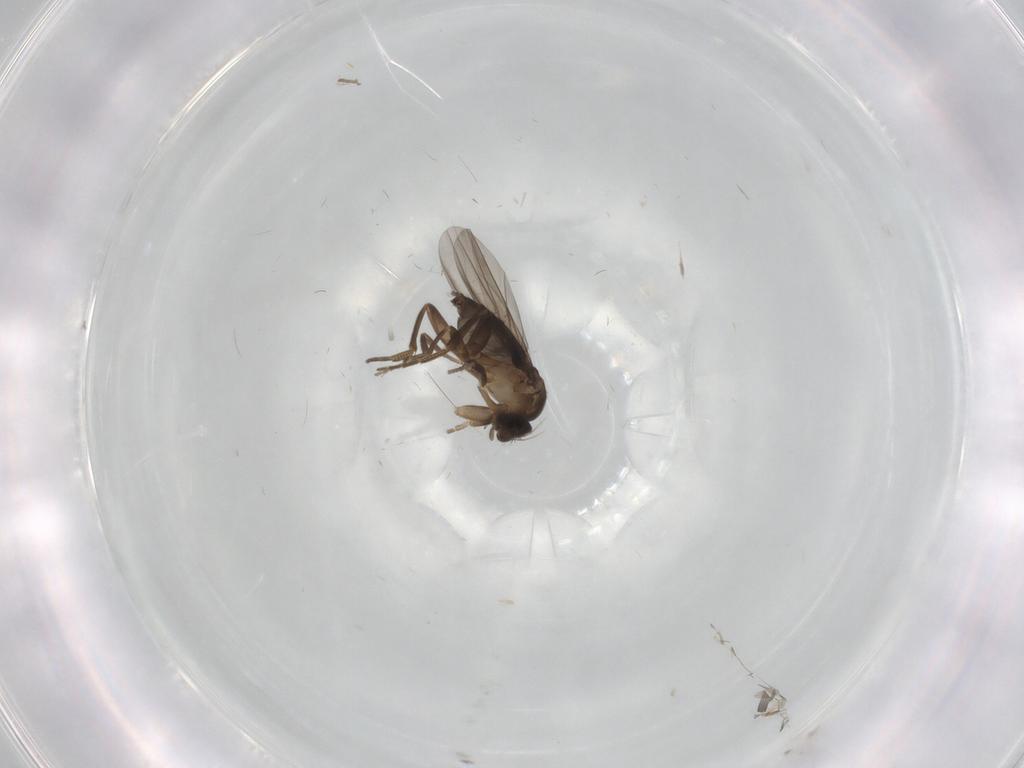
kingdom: Animalia
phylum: Arthropoda
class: Insecta
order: Diptera
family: Phoridae
